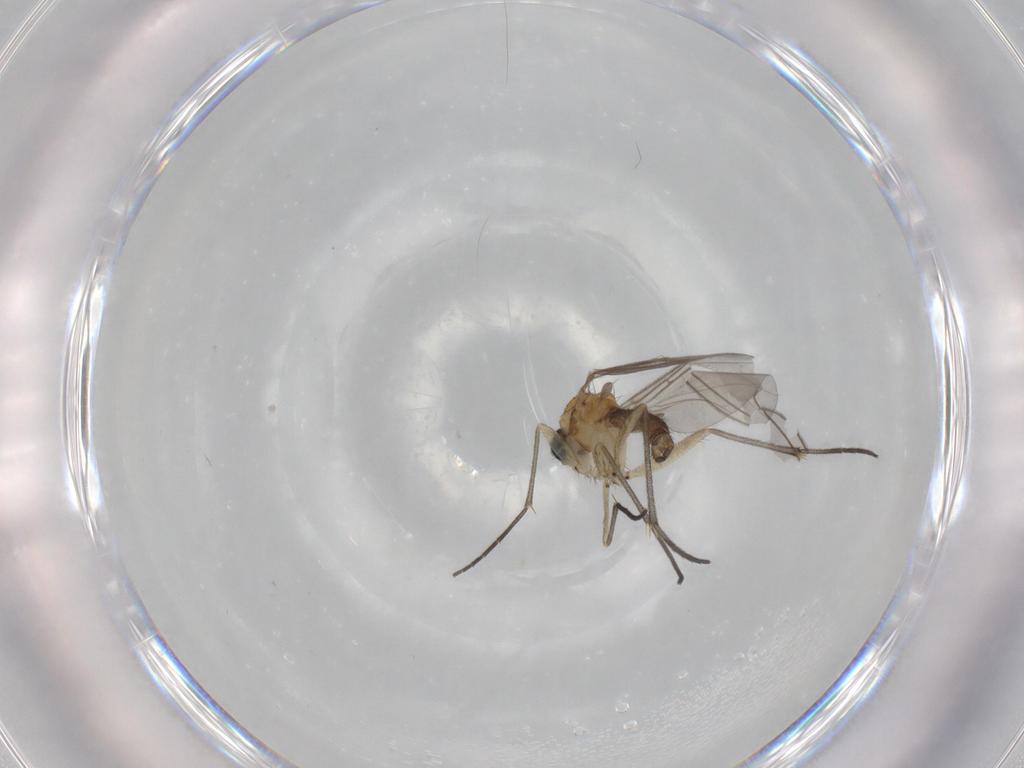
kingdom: Animalia
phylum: Arthropoda
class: Insecta
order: Diptera
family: Sciaridae
